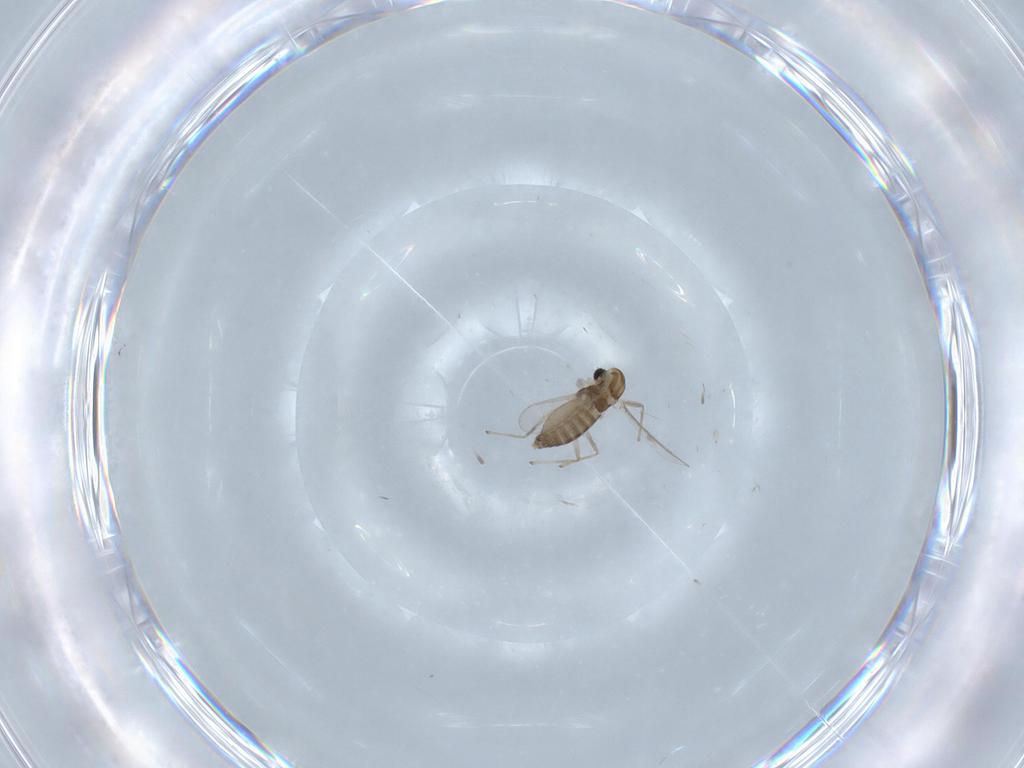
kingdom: Animalia
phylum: Arthropoda
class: Insecta
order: Diptera
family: Chironomidae
